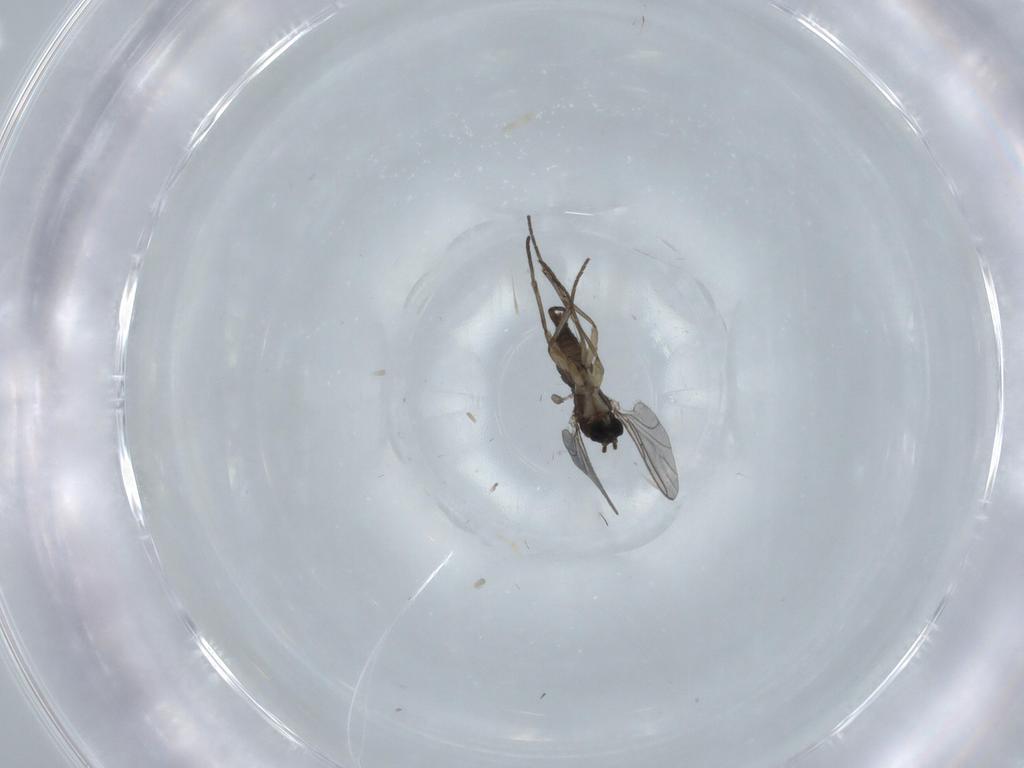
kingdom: Animalia
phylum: Arthropoda
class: Insecta
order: Diptera
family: Sciaridae
